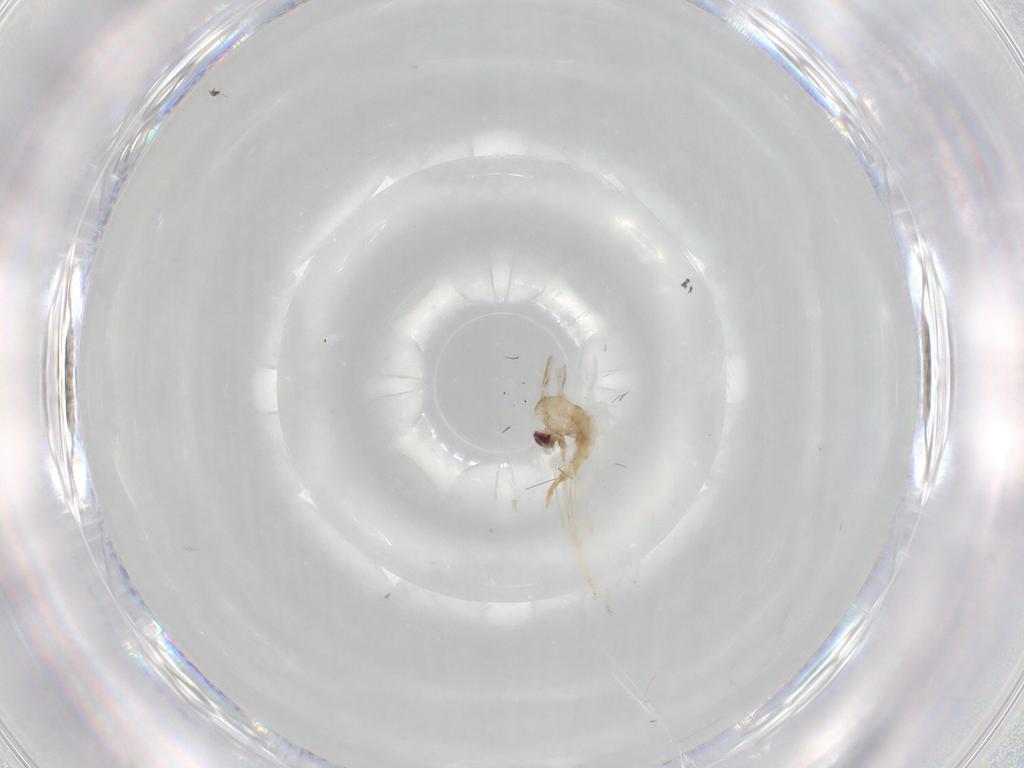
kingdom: Animalia
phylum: Arthropoda
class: Insecta
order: Diptera
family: Cecidomyiidae
